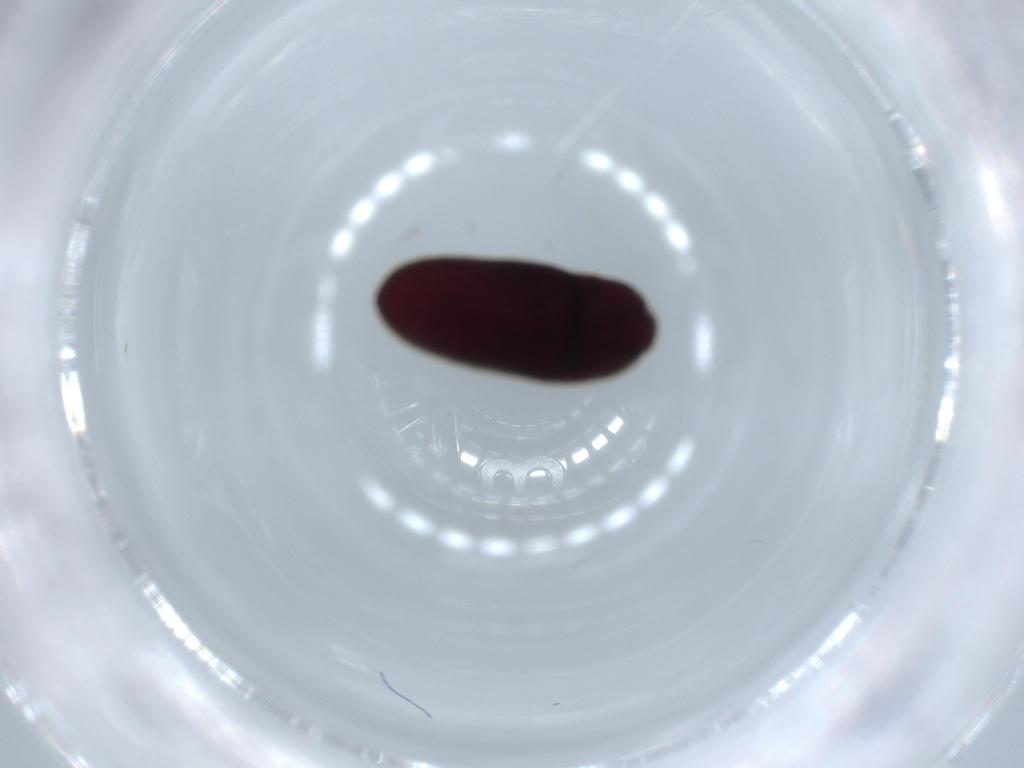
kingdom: Animalia
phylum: Arthropoda
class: Insecta
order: Coleoptera
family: Throscidae
